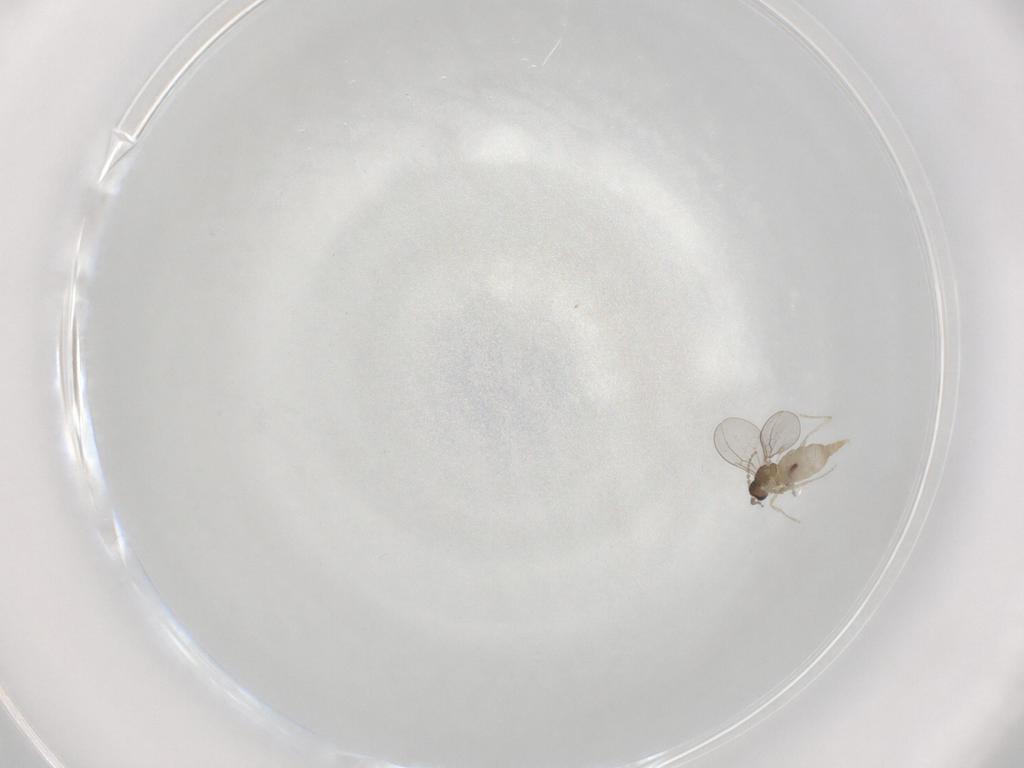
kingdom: Animalia
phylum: Arthropoda
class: Insecta
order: Diptera
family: Cecidomyiidae
